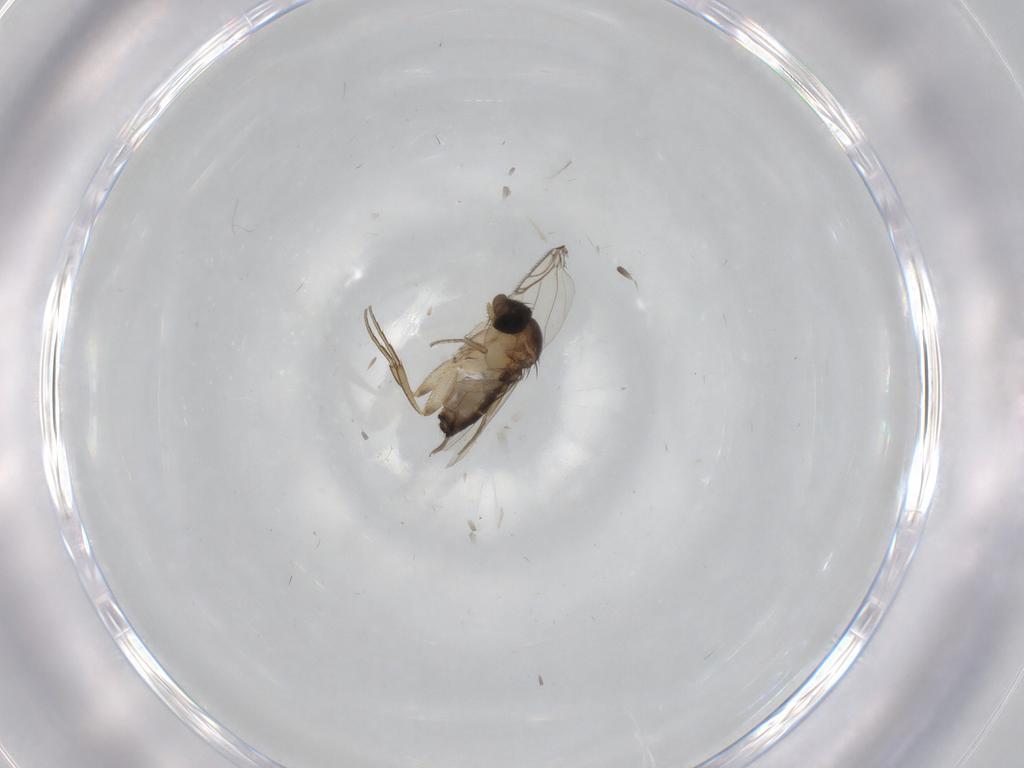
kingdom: Animalia
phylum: Arthropoda
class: Insecta
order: Diptera
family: Cecidomyiidae
